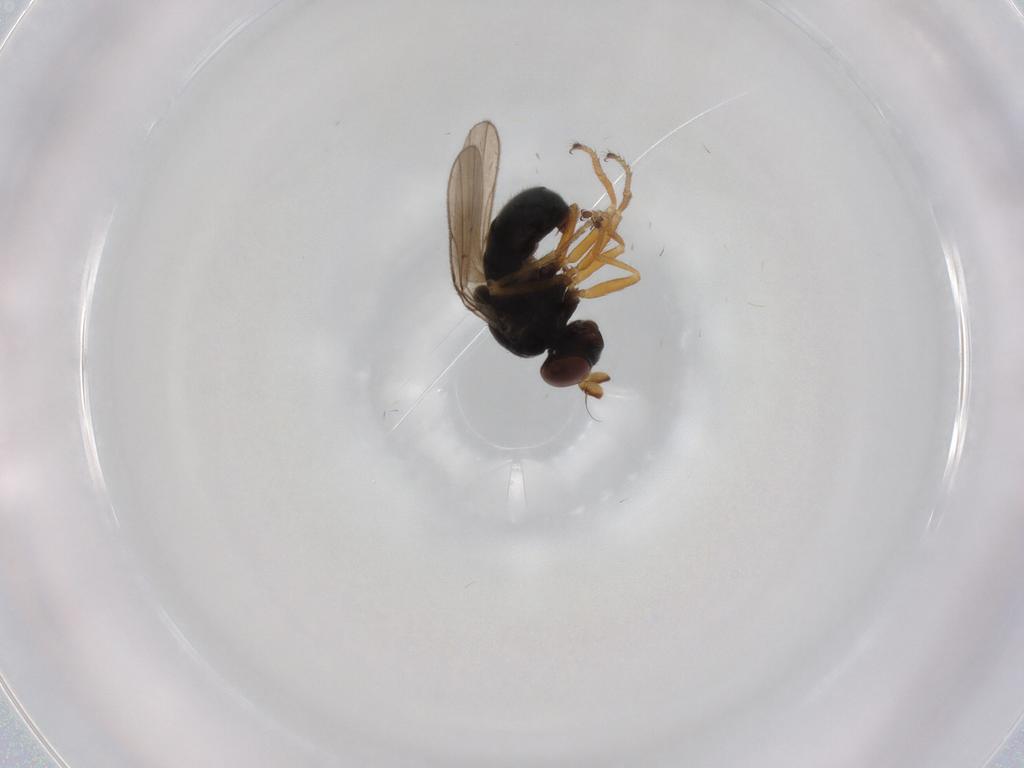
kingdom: Animalia
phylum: Arthropoda
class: Insecta
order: Diptera
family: Ephydridae
